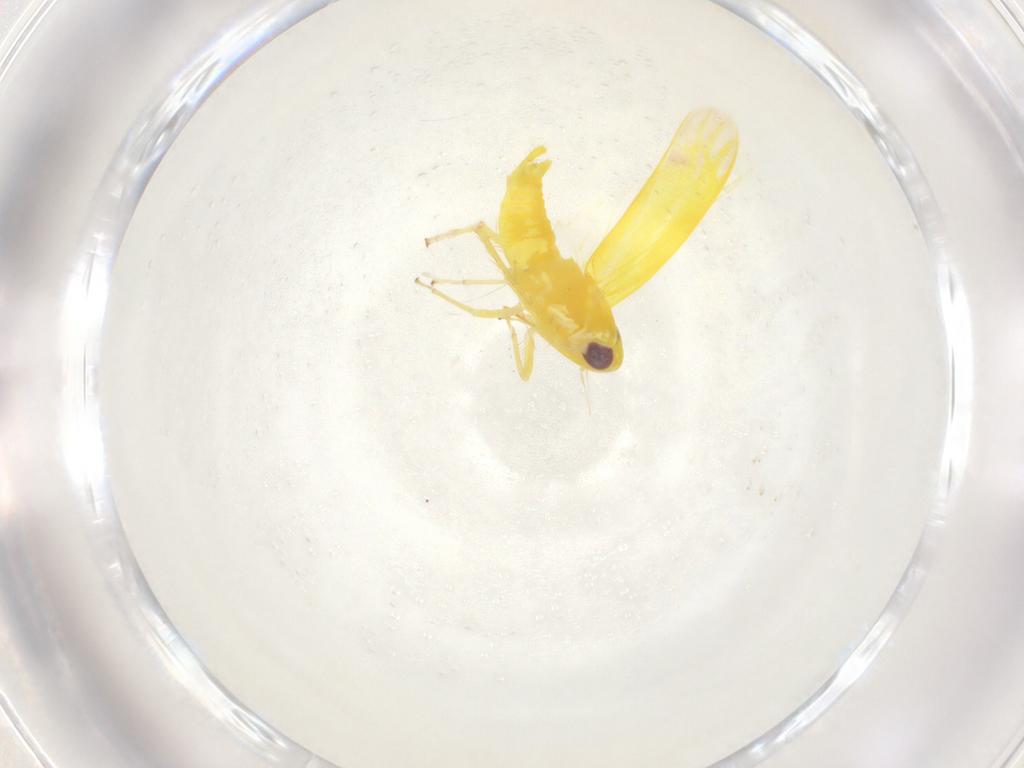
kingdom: Animalia
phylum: Arthropoda
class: Insecta
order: Hemiptera
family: Cicadellidae
